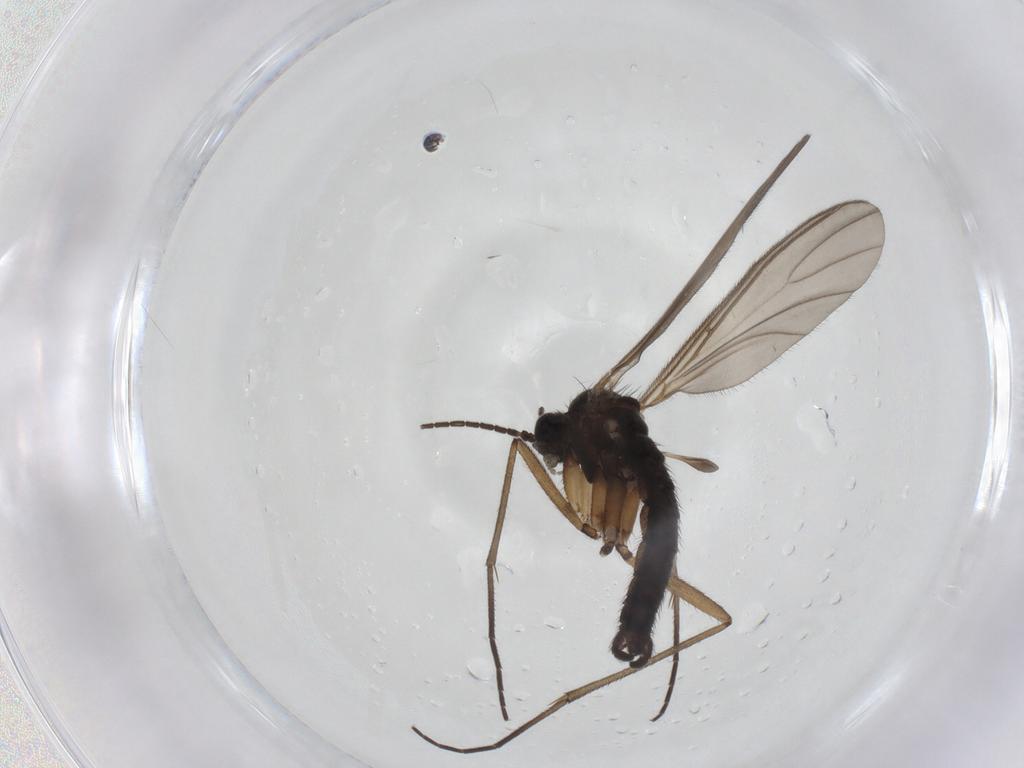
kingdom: Animalia
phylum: Arthropoda
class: Insecta
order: Diptera
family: Sciaridae
